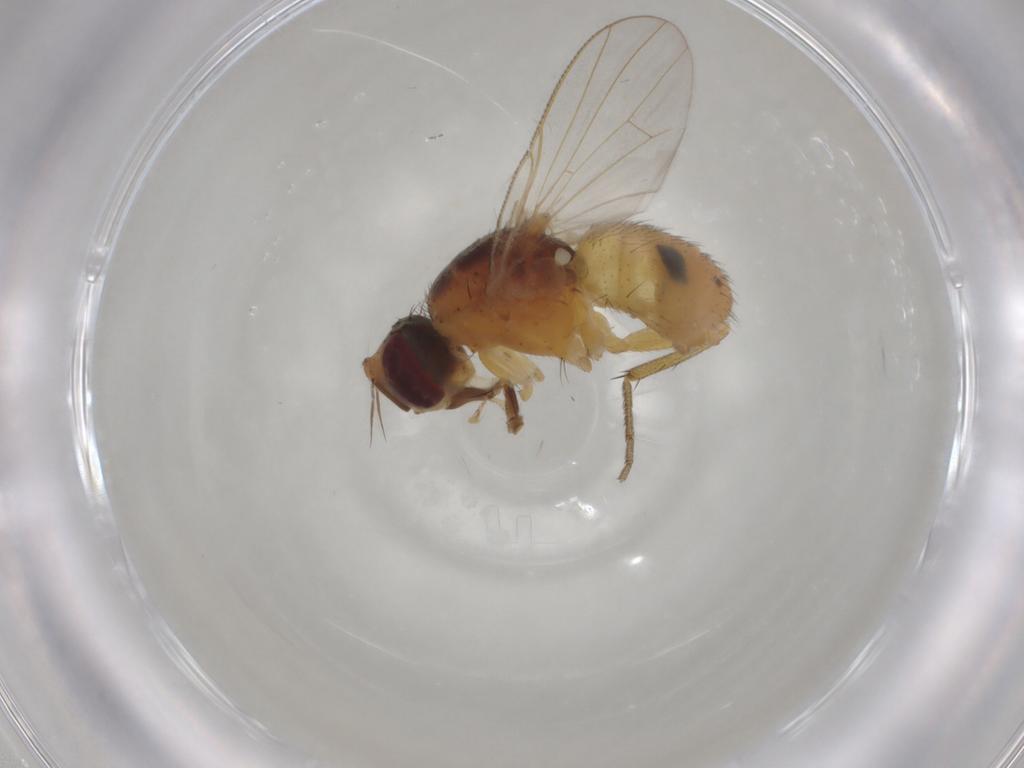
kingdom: Animalia
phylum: Arthropoda
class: Insecta
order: Diptera
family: Muscidae
